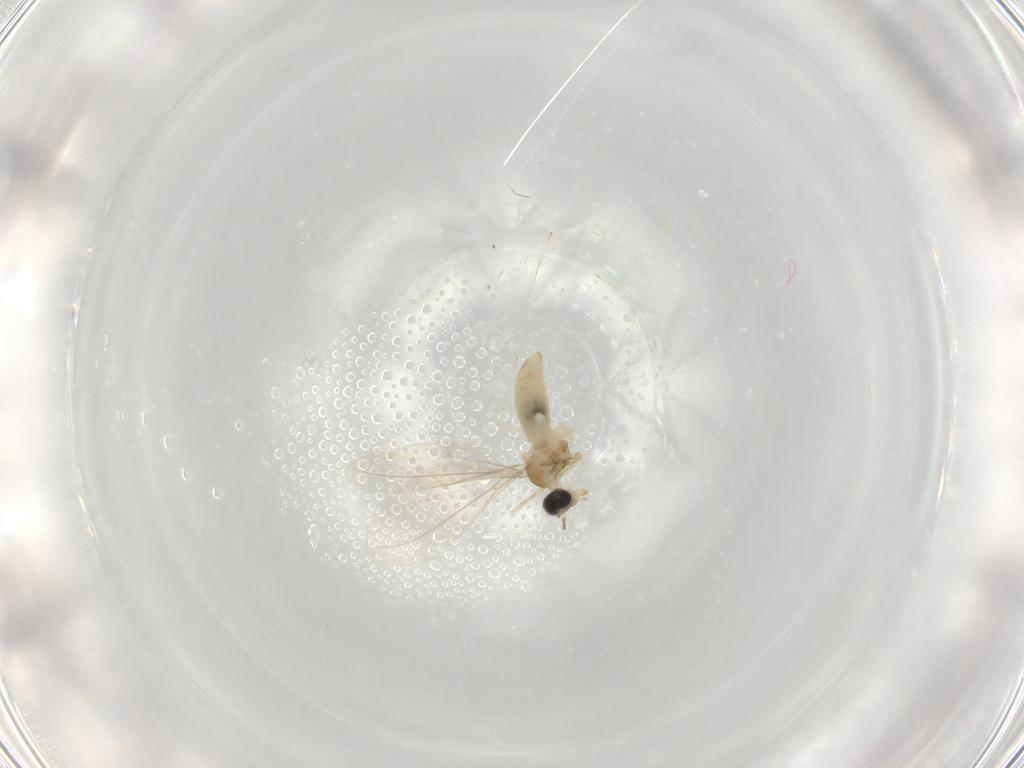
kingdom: Animalia
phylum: Arthropoda
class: Insecta
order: Diptera
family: Cecidomyiidae
